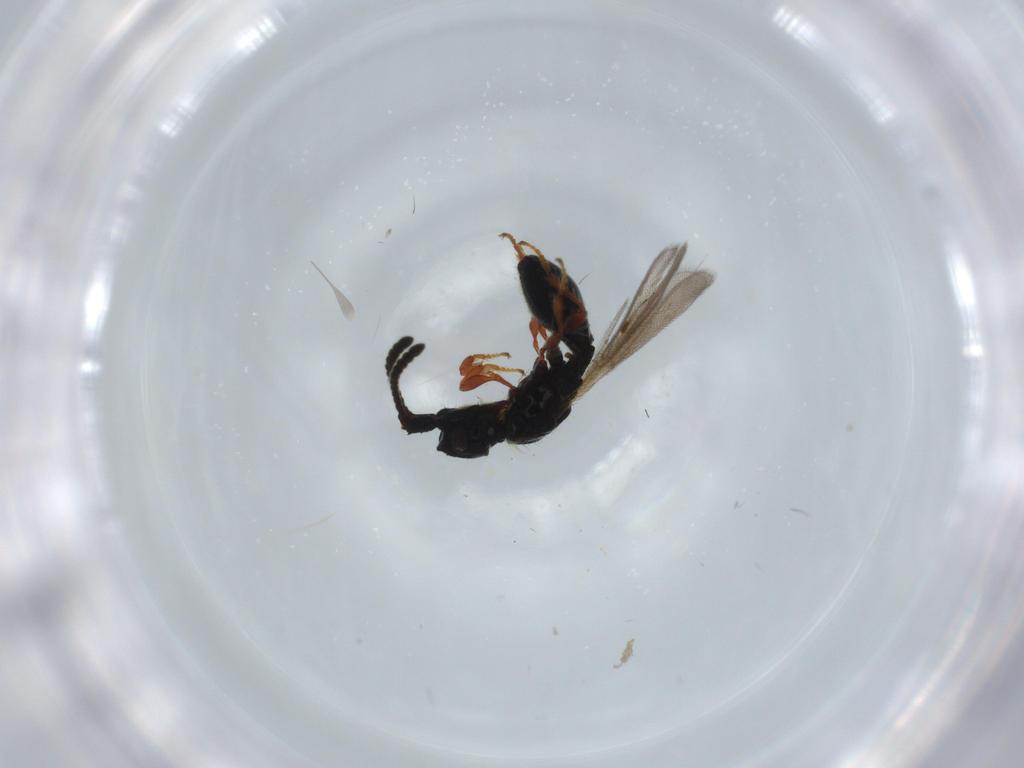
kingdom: Animalia
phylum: Arthropoda
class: Insecta
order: Hymenoptera
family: Diapriidae
